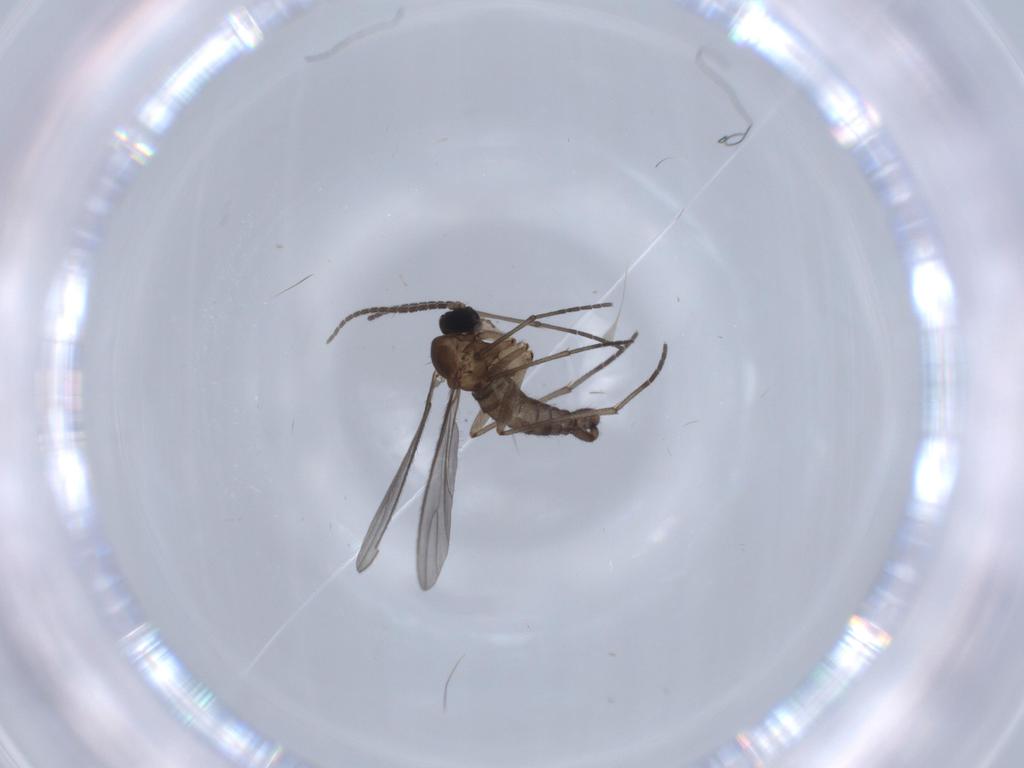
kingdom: Animalia
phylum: Arthropoda
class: Insecta
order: Diptera
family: Sciaridae
